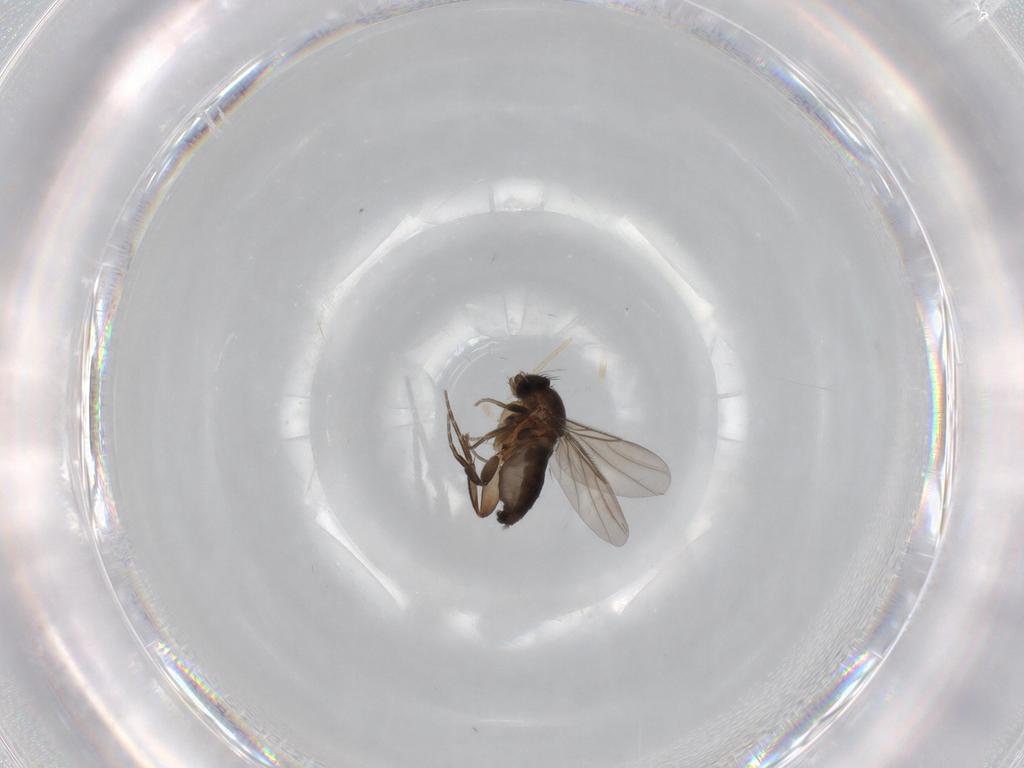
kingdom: Animalia
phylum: Arthropoda
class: Insecta
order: Diptera
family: Phoridae
